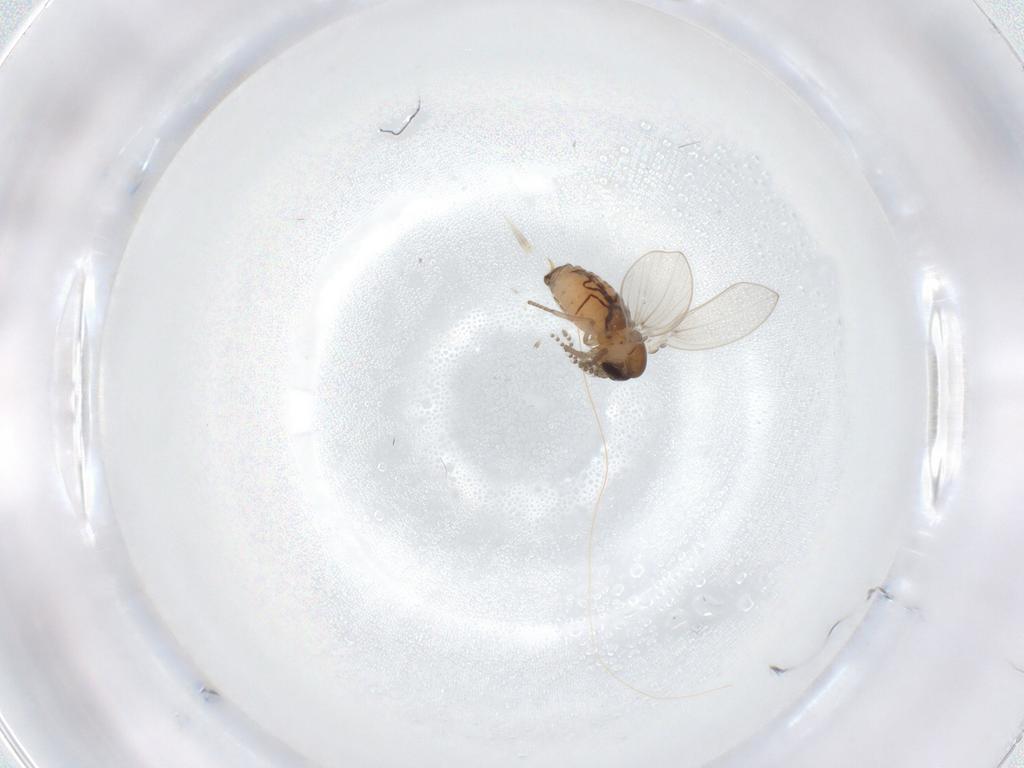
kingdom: Animalia
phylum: Arthropoda
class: Insecta
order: Diptera
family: Psychodidae
